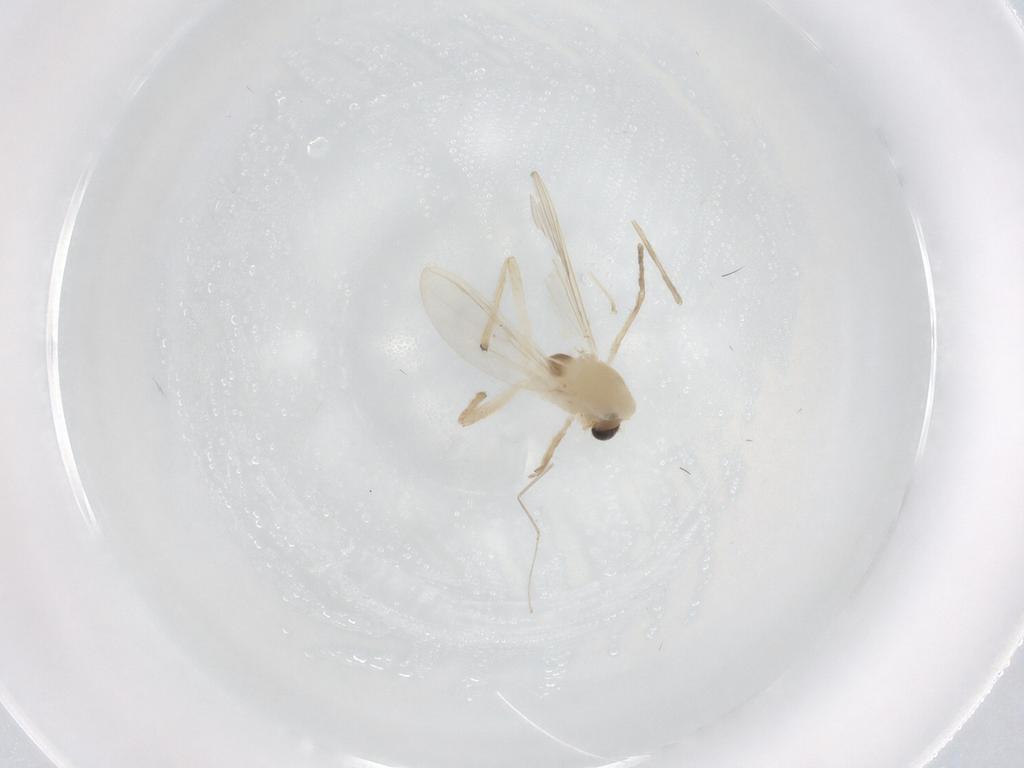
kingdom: Animalia
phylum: Arthropoda
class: Insecta
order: Diptera
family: Chironomidae
